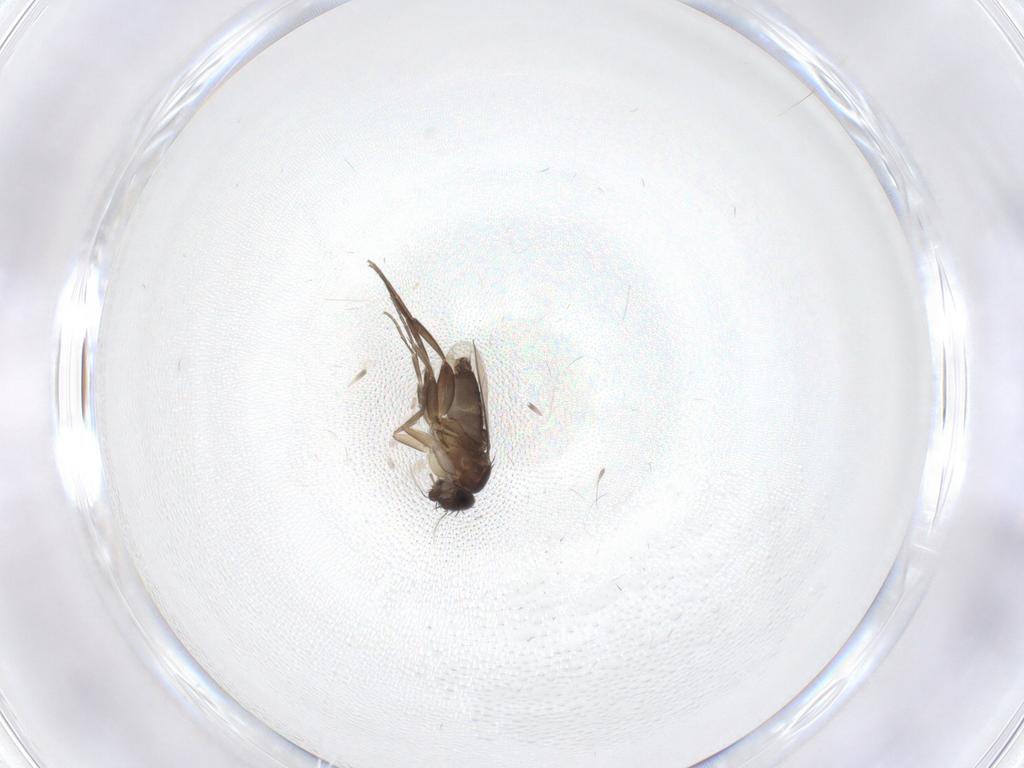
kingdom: Animalia
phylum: Arthropoda
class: Insecta
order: Diptera
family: Phoridae
